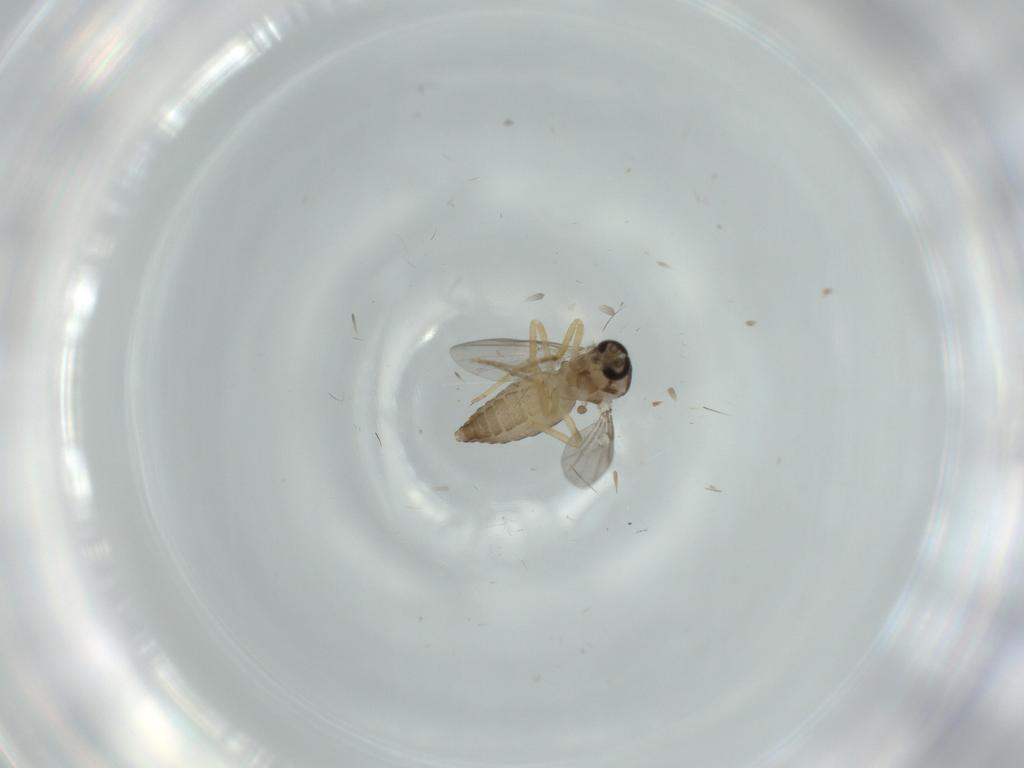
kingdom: Animalia
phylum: Arthropoda
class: Insecta
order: Diptera
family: Ceratopogonidae
